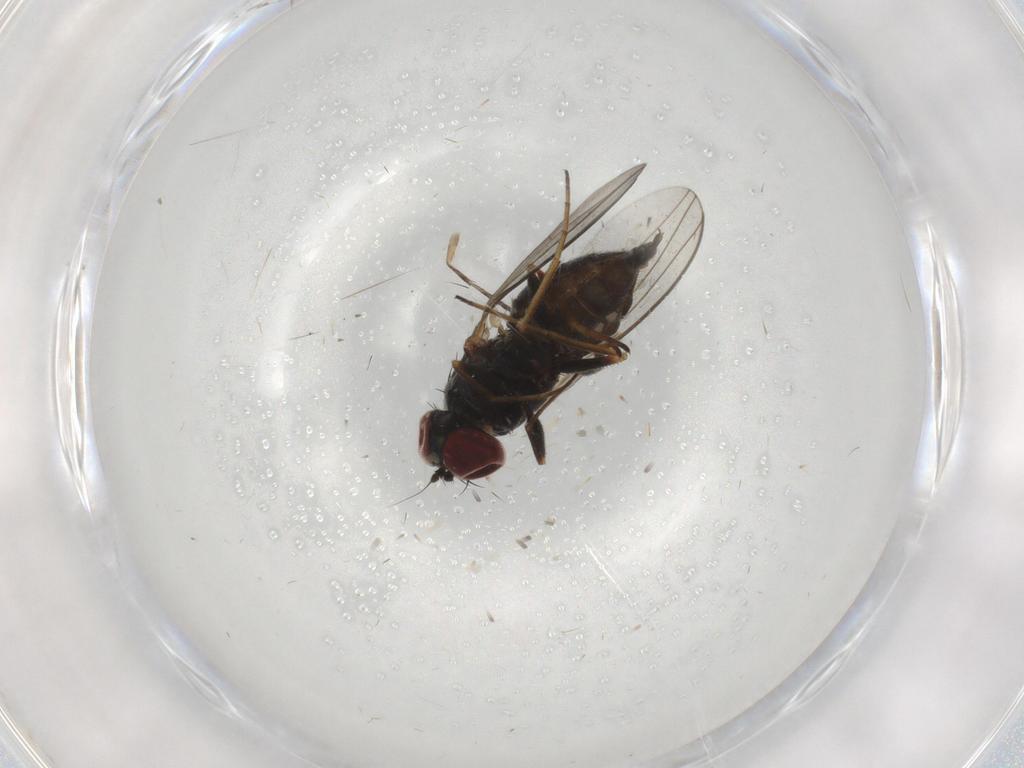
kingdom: Animalia
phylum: Arthropoda
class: Insecta
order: Diptera
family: Dolichopodidae
